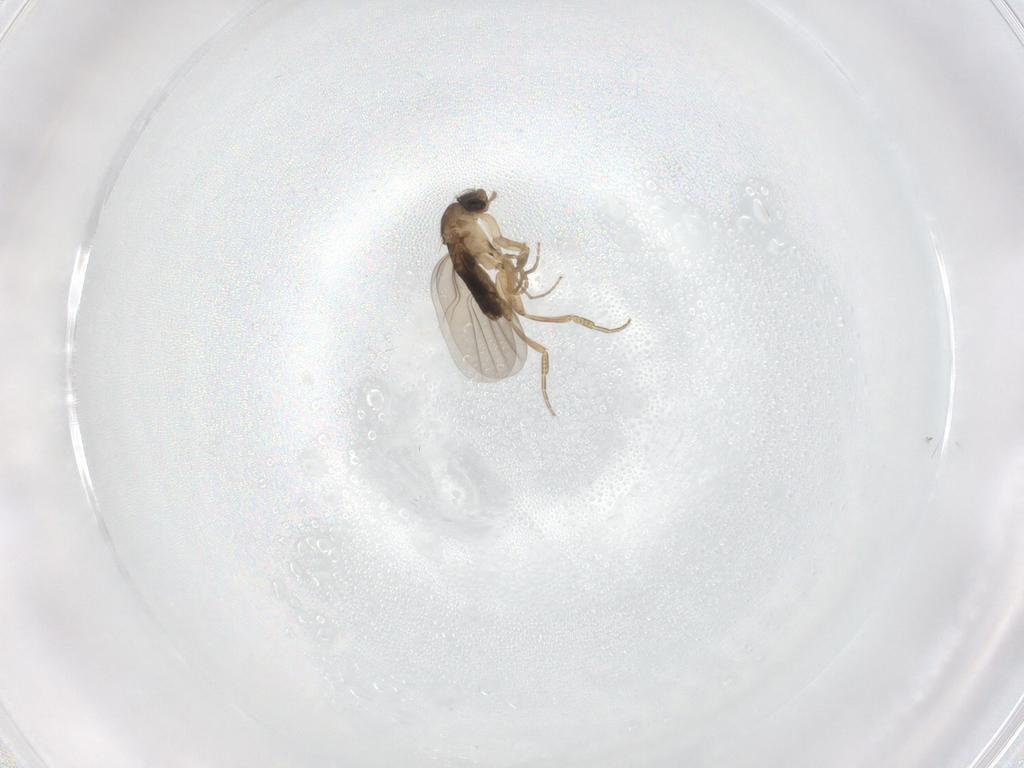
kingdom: Animalia
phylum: Arthropoda
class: Insecta
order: Diptera
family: Chironomidae
